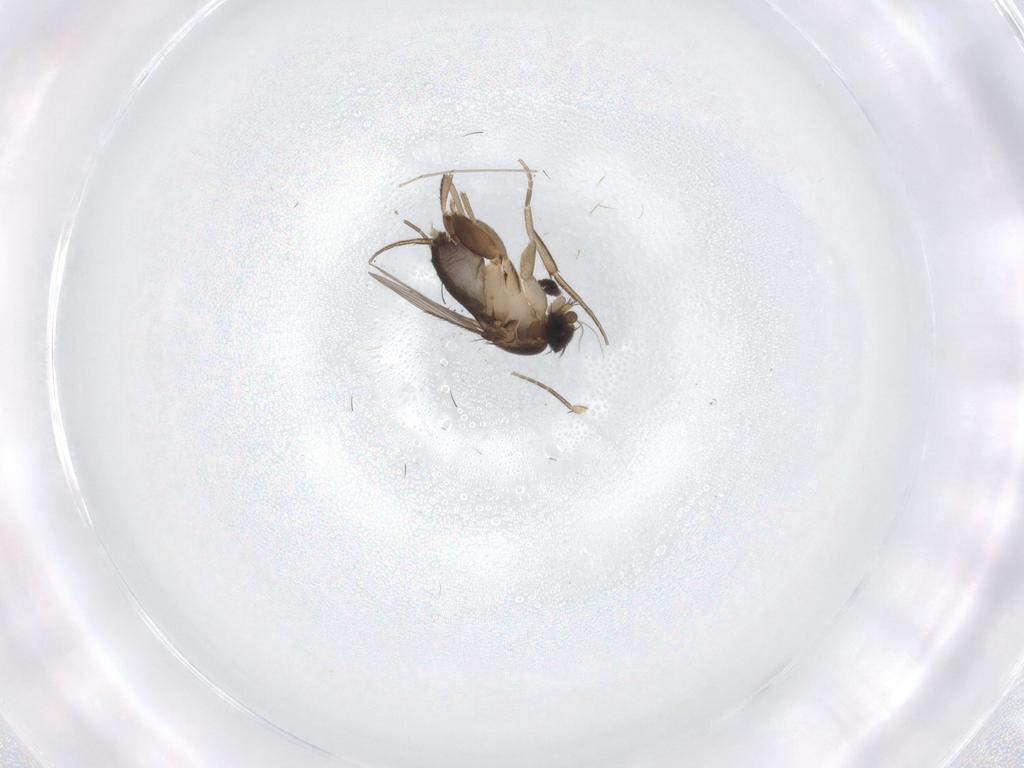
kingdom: Animalia
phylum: Arthropoda
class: Insecta
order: Diptera
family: Phoridae
